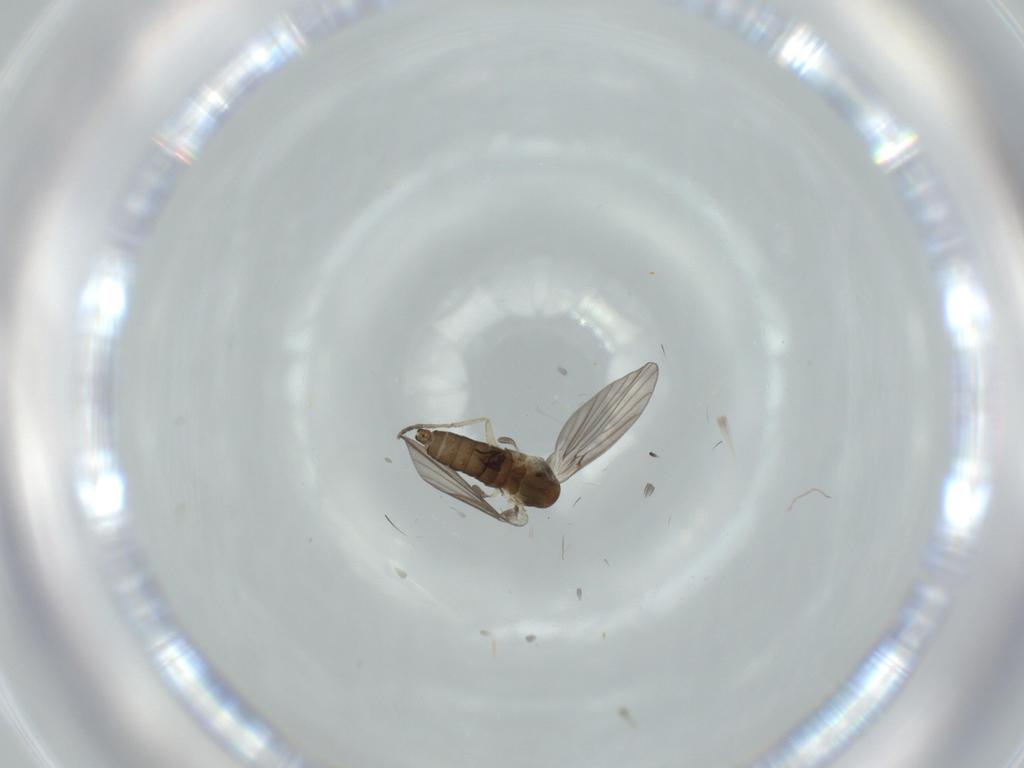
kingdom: Animalia
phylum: Arthropoda
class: Insecta
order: Diptera
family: Psychodidae
